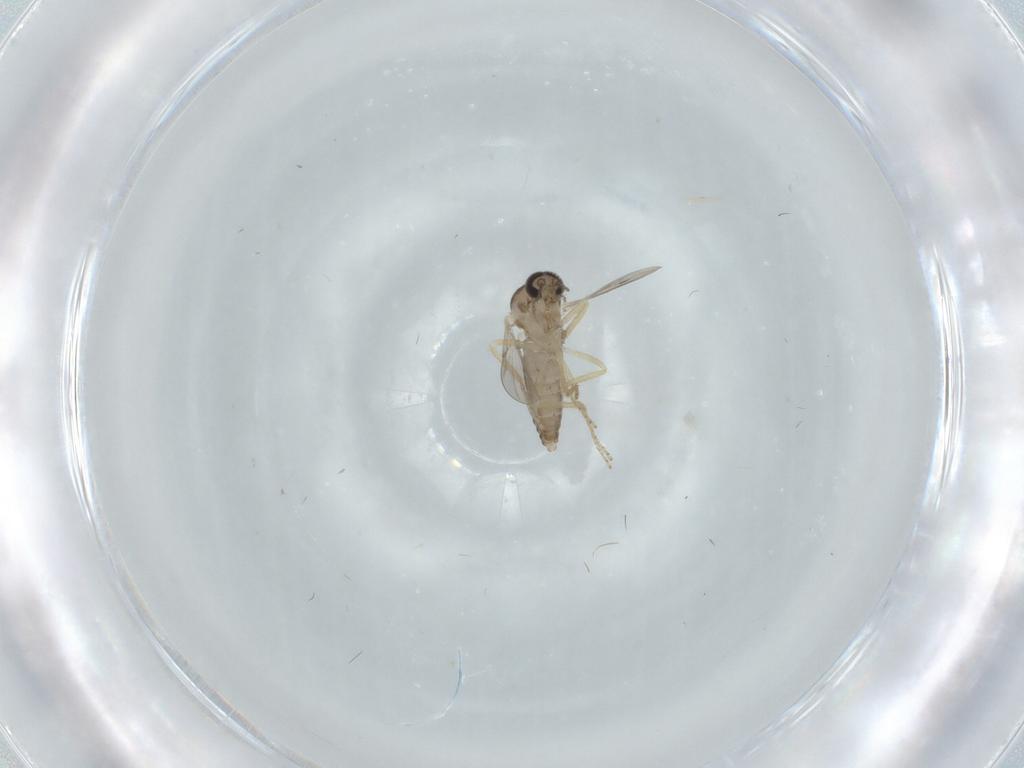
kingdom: Animalia
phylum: Arthropoda
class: Insecta
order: Diptera
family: Ceratopogonidae
